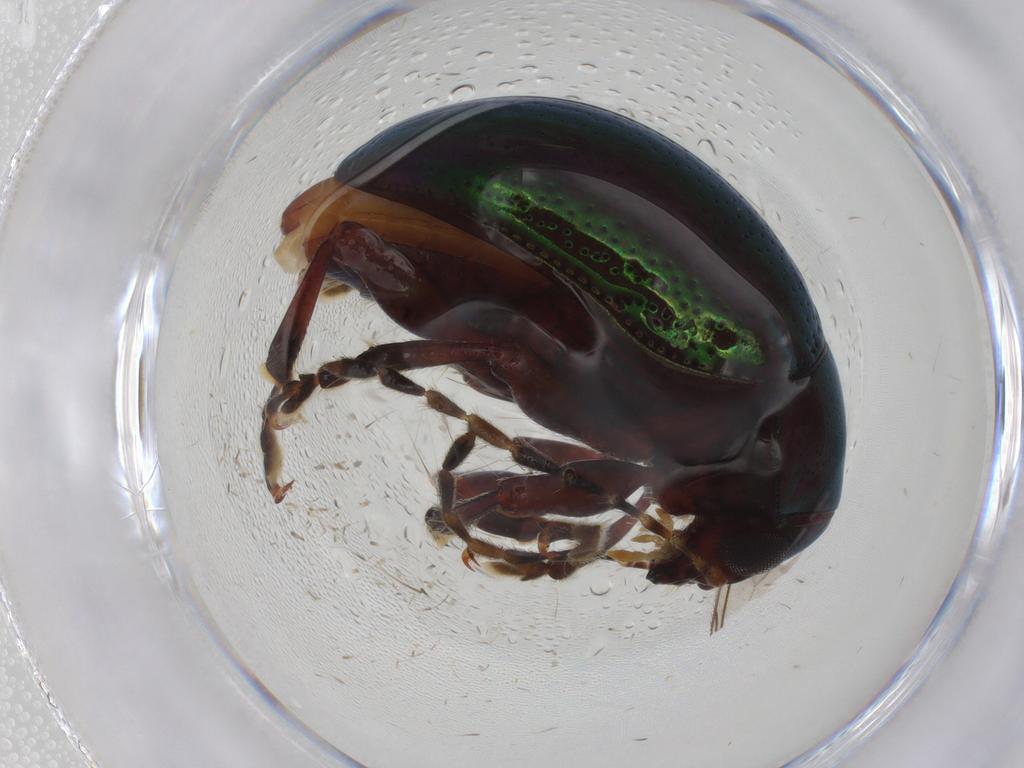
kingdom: Animalia
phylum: Arthropoda
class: Insecta
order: Coleoptera
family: Chrysomelidae
